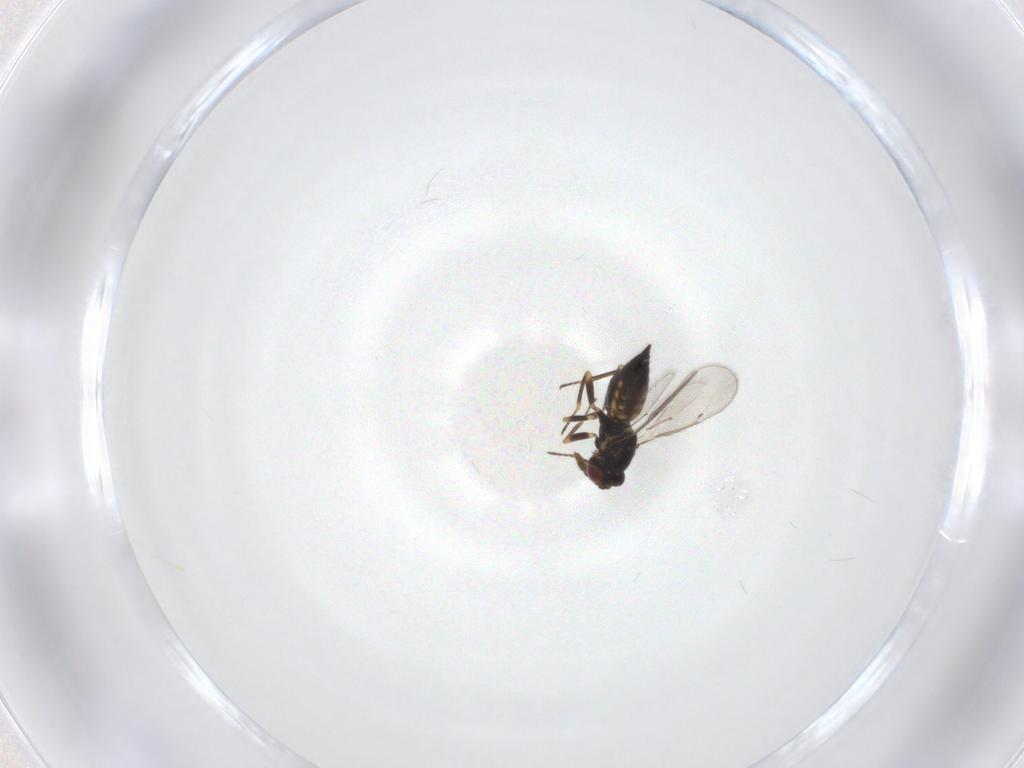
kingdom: Animalia
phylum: Arthropoda
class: Insecta
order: Hymenoptera
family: Eulophidae
